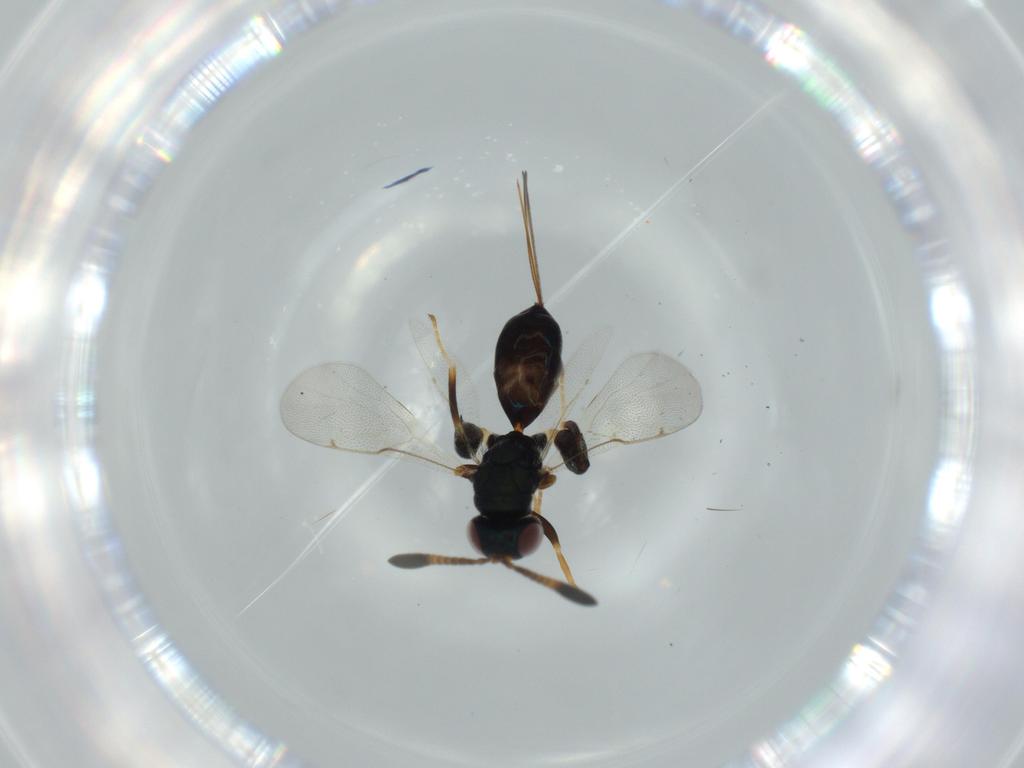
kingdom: Animalia
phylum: Arthropoda
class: Insecta
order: Hymenoptera
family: Torymidae
